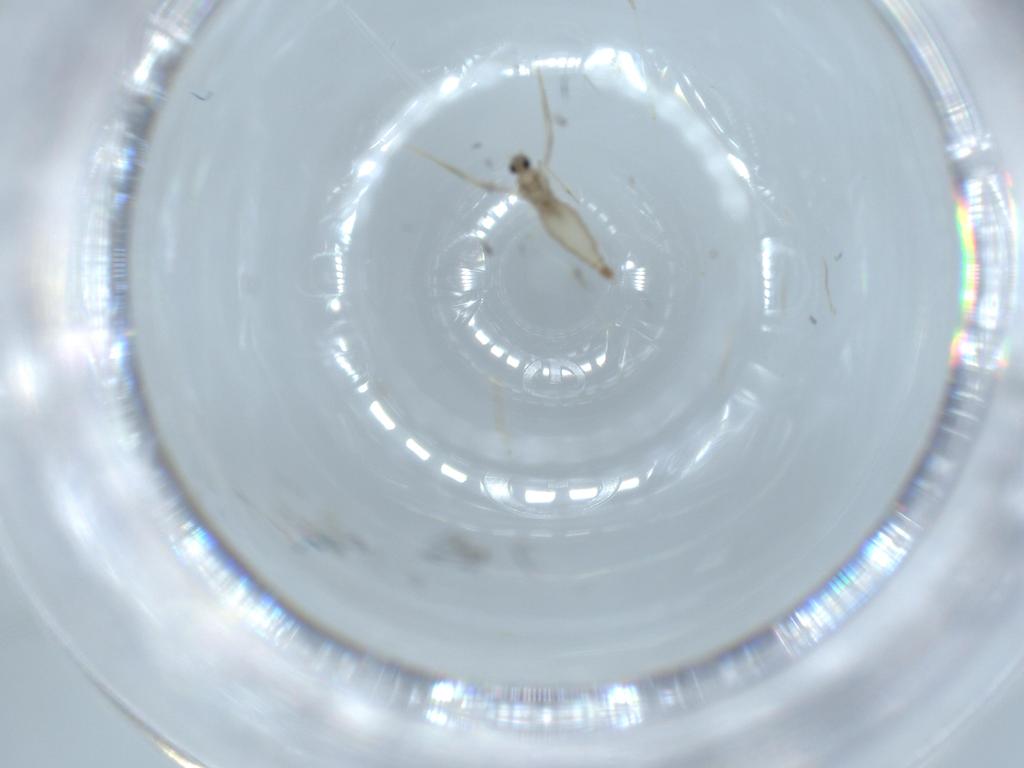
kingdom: Animalia
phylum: Arthropoda
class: Insecta
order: Diptera
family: Cecidomyiidae
